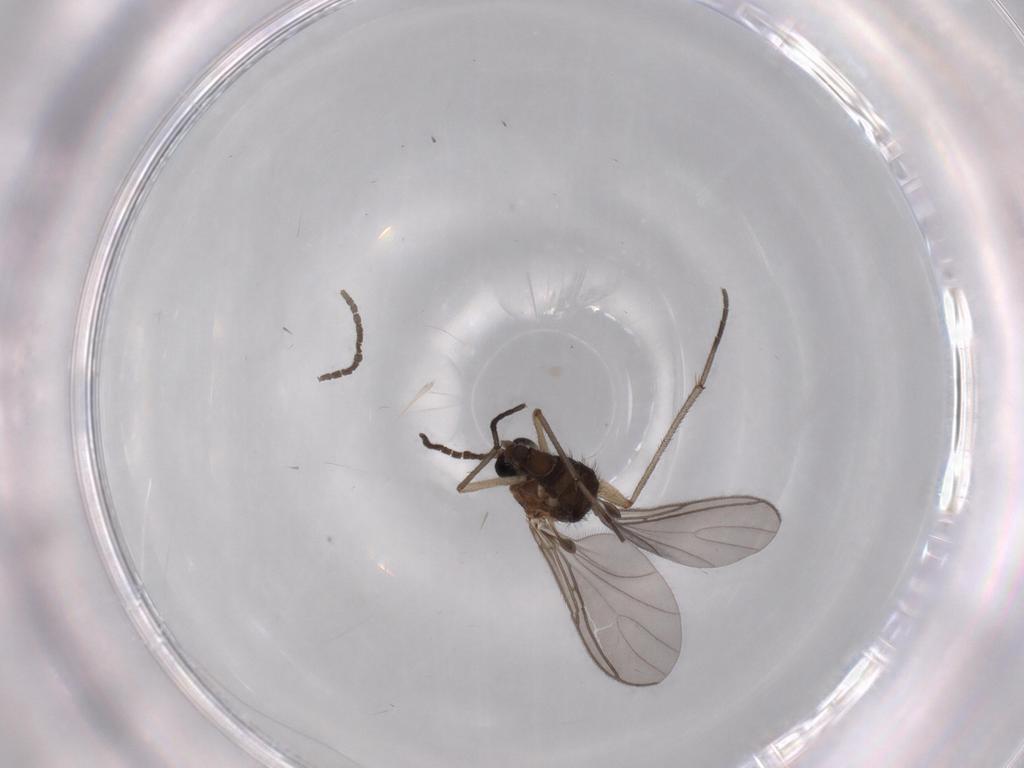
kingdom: Animalia
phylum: Arthropoda
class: Insecta
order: Diptera
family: Sciaridae
